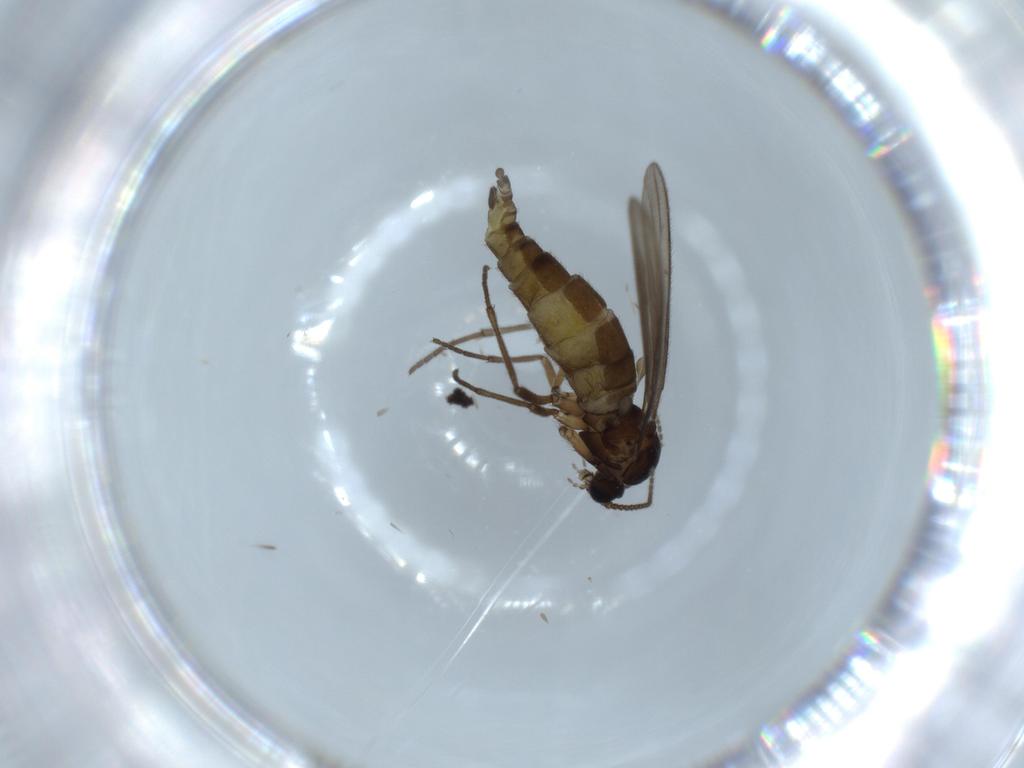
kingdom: Animalia
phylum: Arthropoda
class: Insecta
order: Diptera
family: Sciaridae
